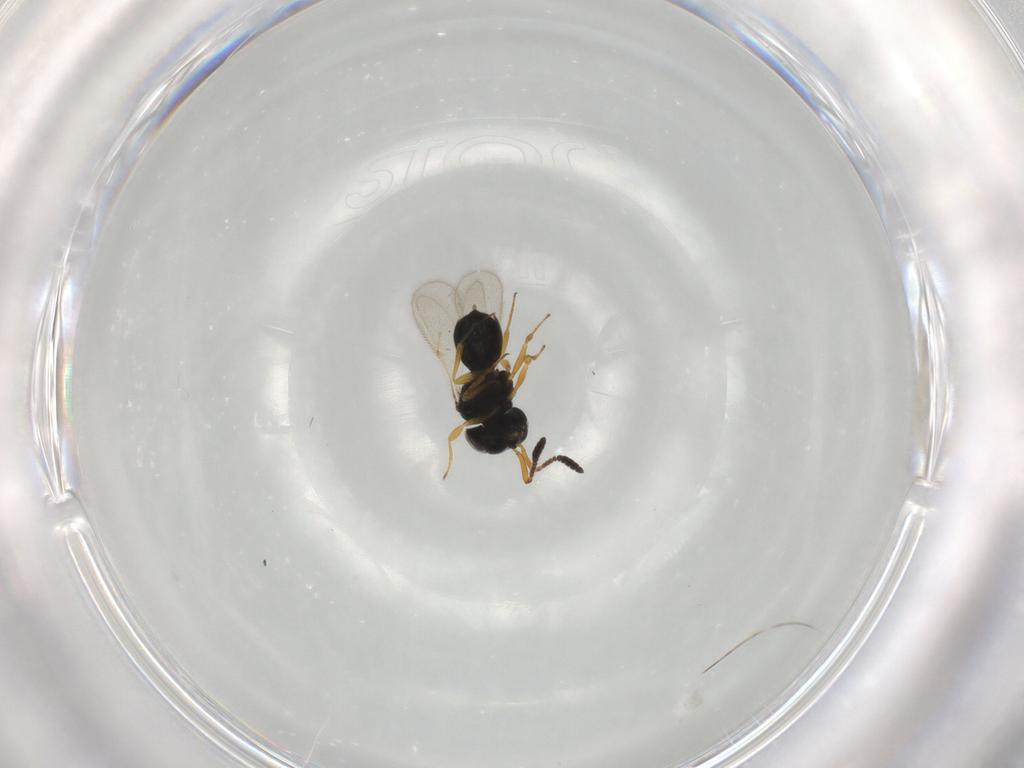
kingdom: Animalia
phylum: Arthropoda
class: Insecta
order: Hymenoptera
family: Scelionidae
